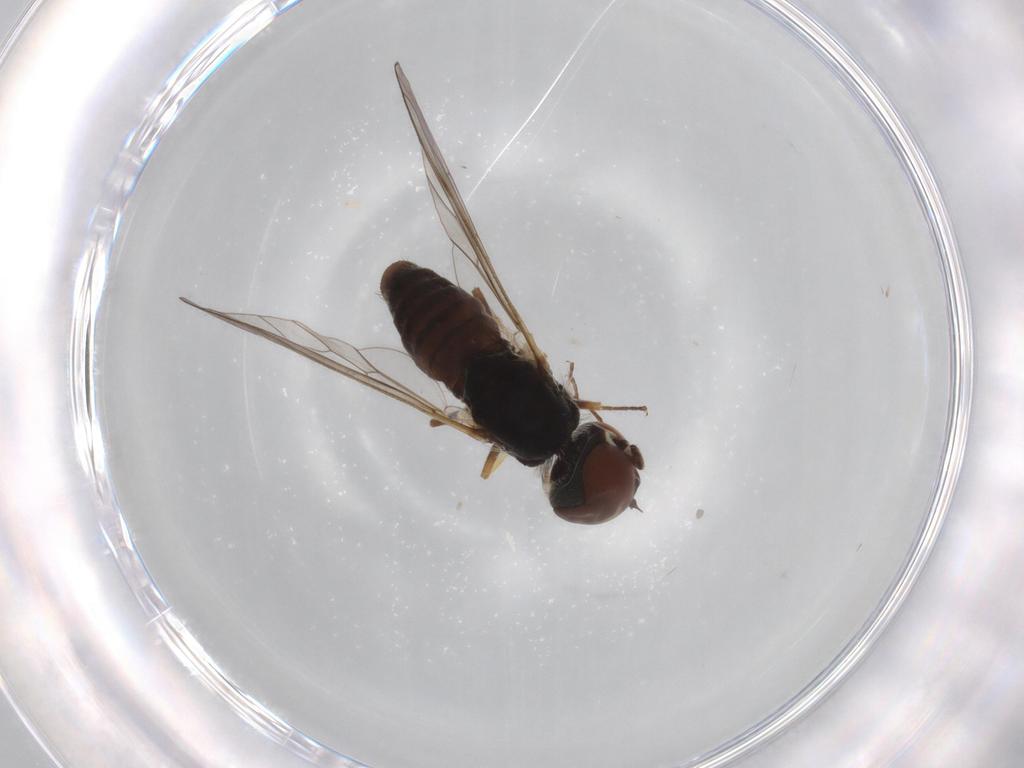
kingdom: Animalia
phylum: Arthropoda
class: Insecta
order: Diptera
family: Bombyliidae
